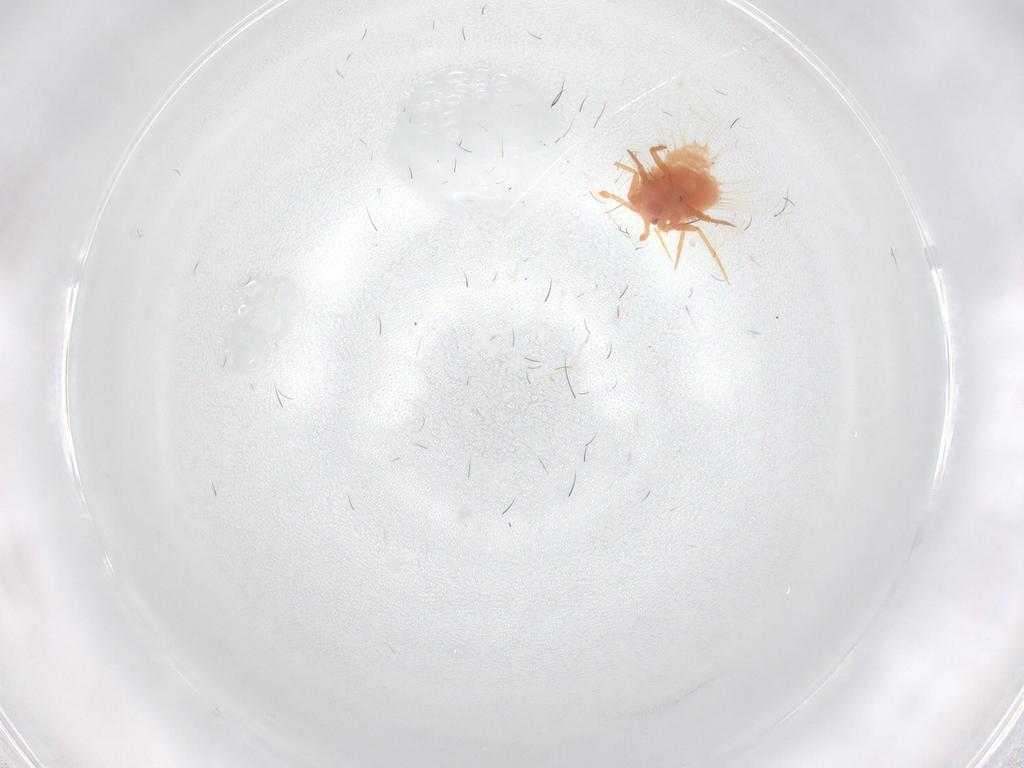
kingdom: Animalia
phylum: Arthropoda
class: Insecta
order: Hemiptera
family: Coccoidea_incertae_sedis
